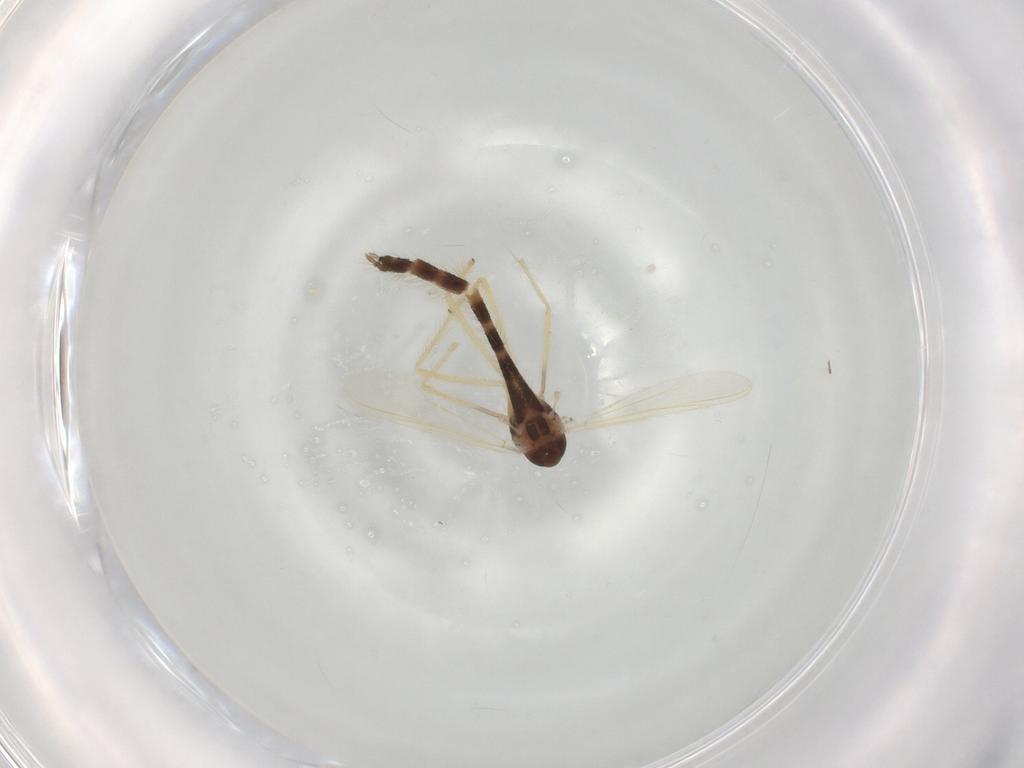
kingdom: Animalia
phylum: Arthropoda
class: Insecta
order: Diptera
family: Chironomidae
